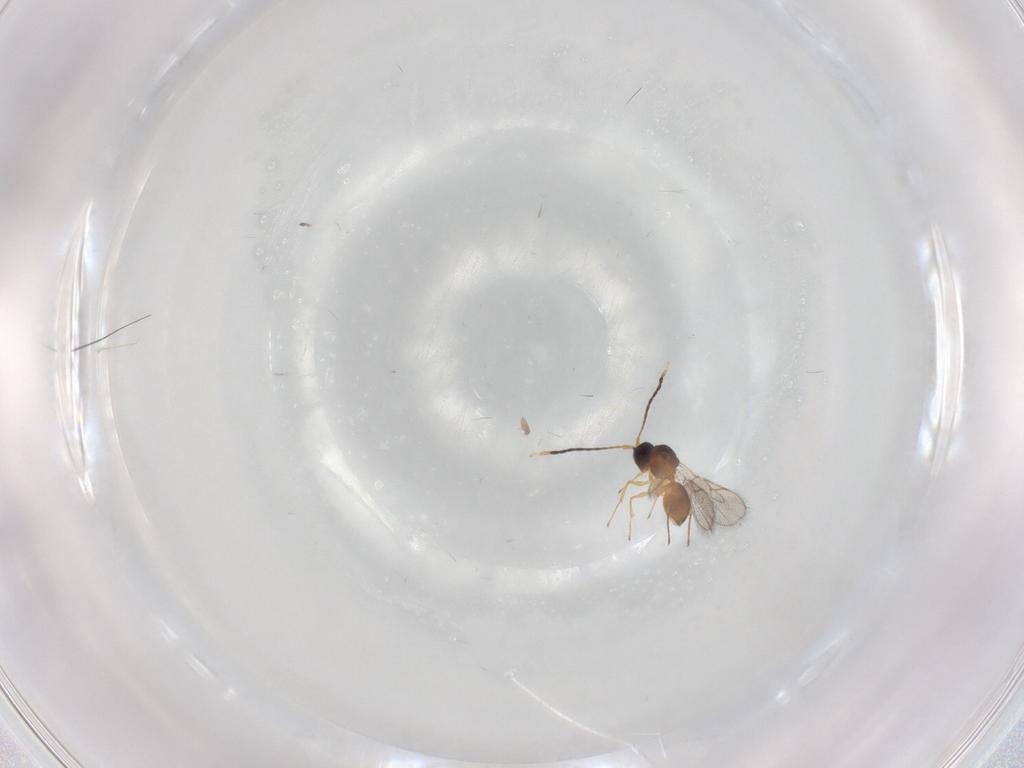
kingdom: Animalia
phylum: Arthropoda
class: Insecta
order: Hymenoptera
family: Figitidae
